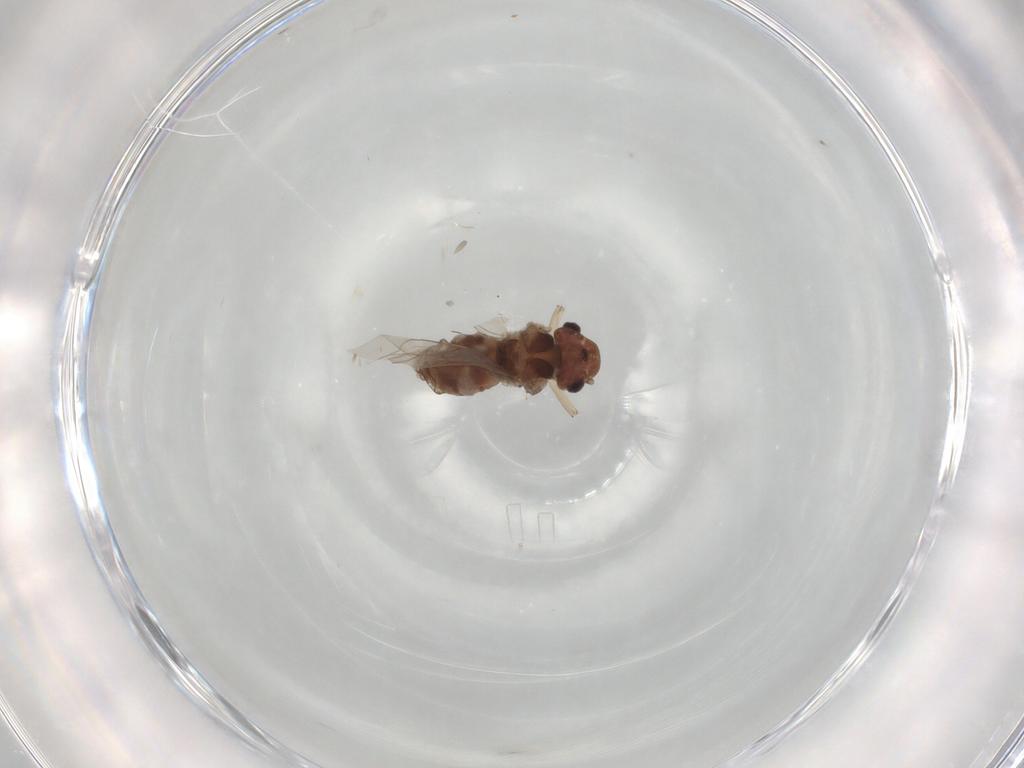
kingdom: Animalia
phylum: Arthropoda
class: Insecta
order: Psocodea
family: Peripsocidae
